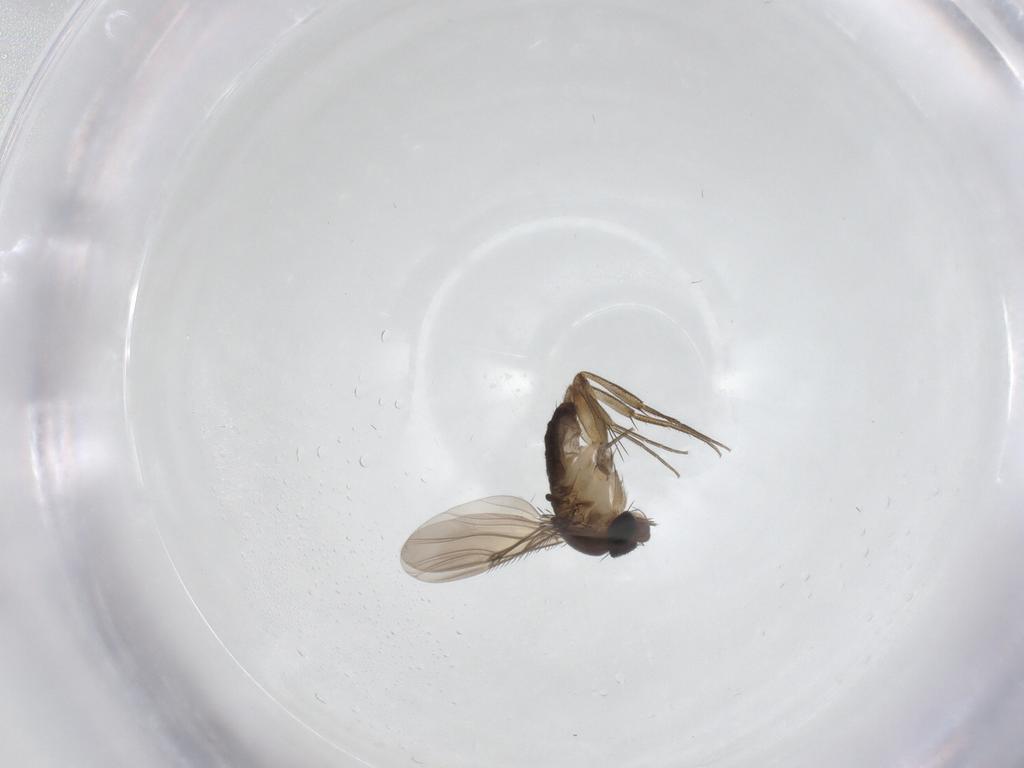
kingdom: Animalia
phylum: Arthropoda
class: Insecta
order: Diptera
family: Phoridae
